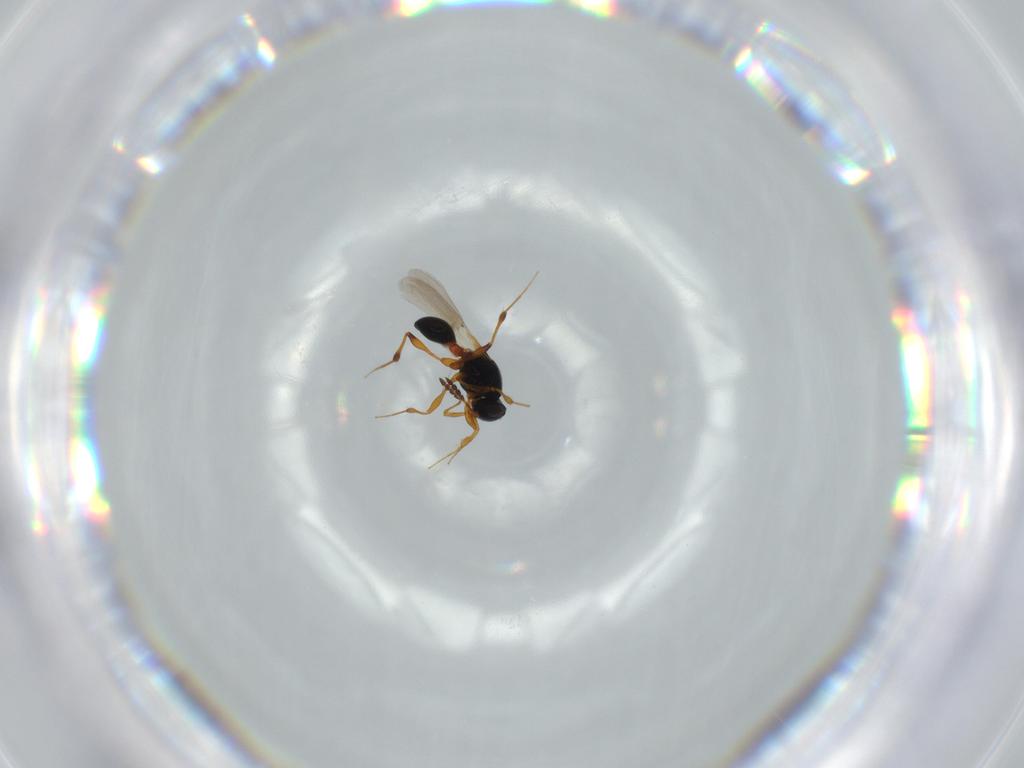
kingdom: Animalia
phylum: Arthropoda
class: Insecta
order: Hymenoptera
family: Platygastridae
